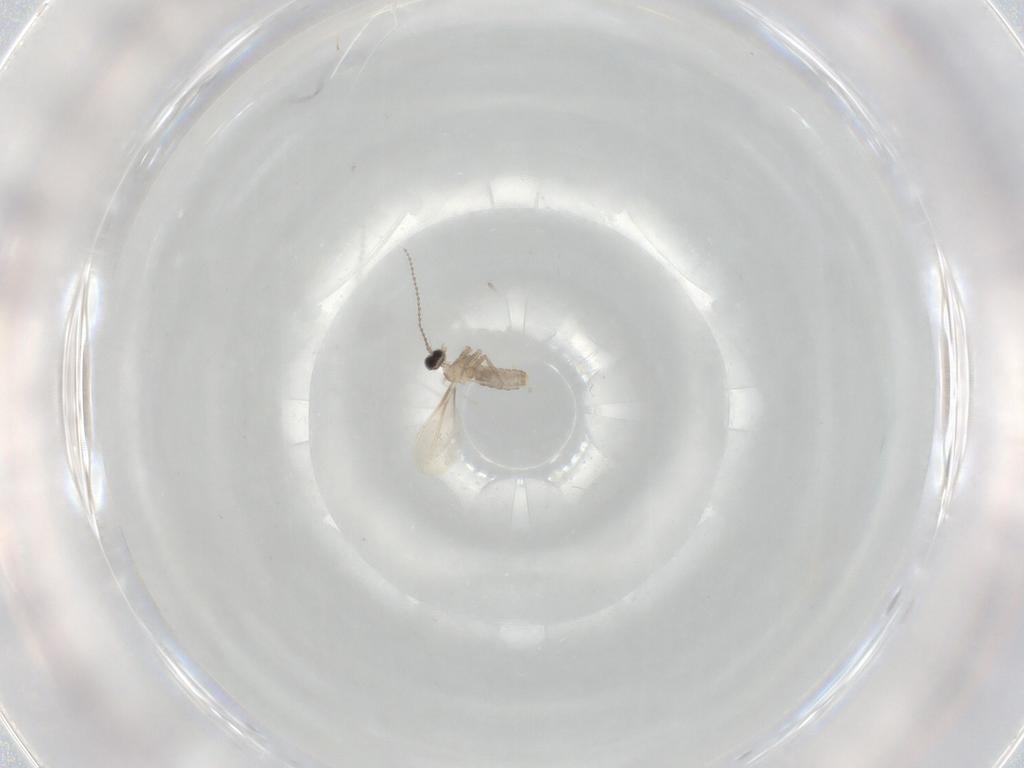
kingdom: Animalia
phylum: Arthropoda
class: Insecta
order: Diptera
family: Cecidomyiidae
